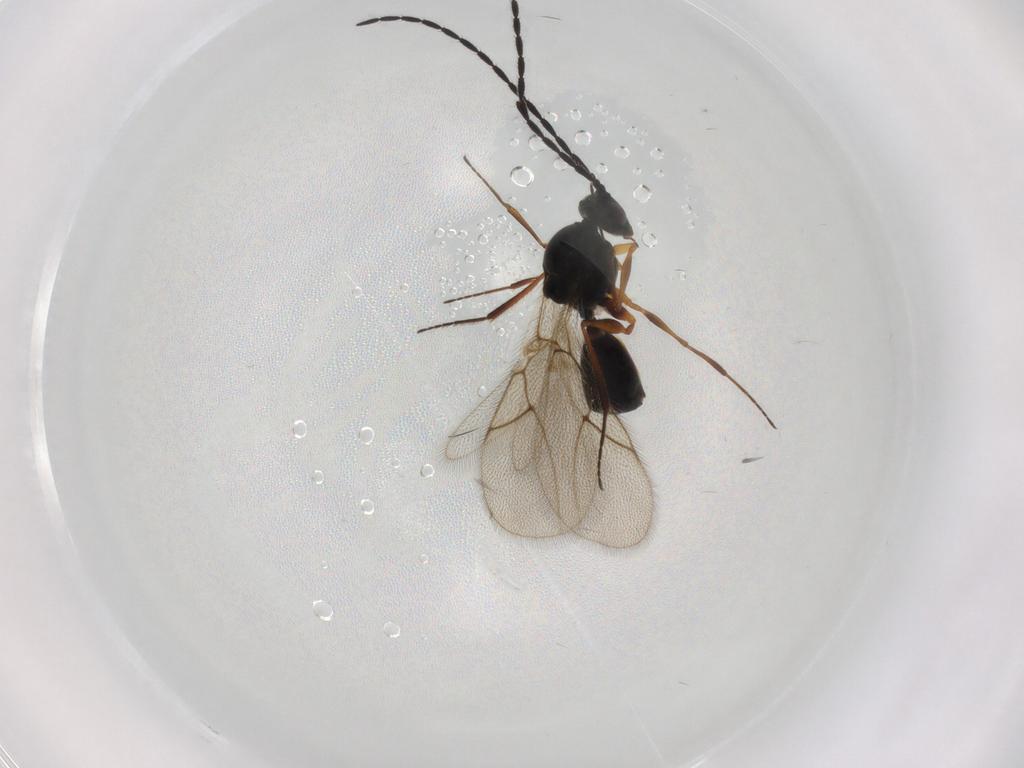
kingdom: Animalia
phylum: Arthropoda
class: Insecta
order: Hymenoptera
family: Figitidae
